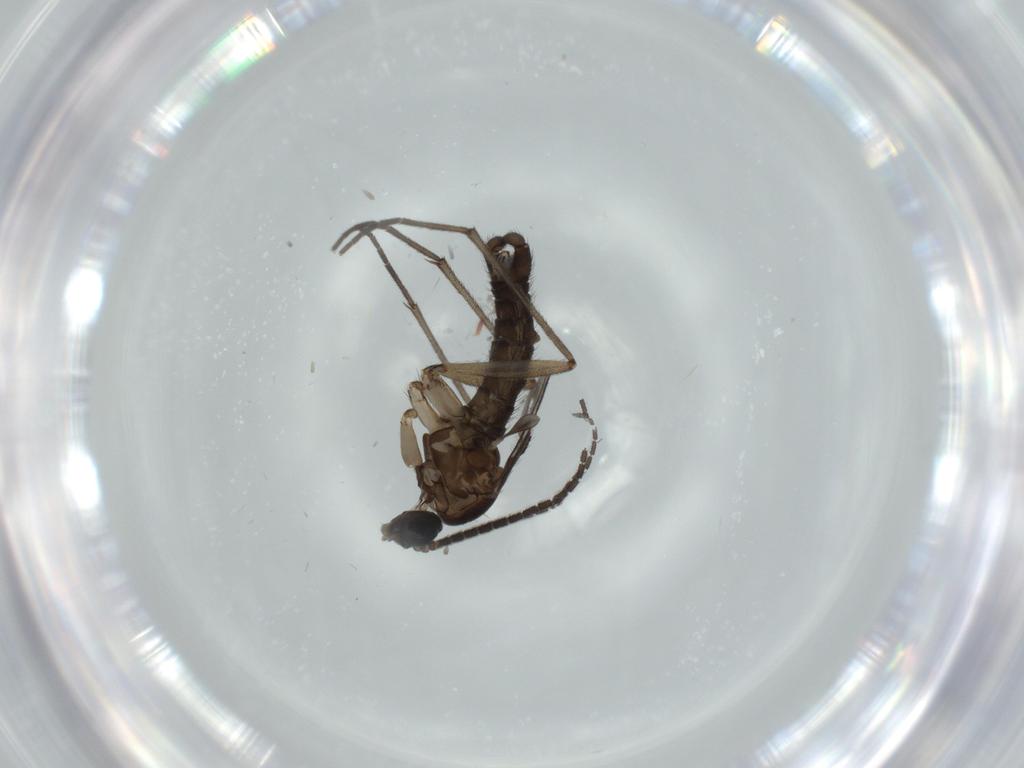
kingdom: Animalia
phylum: Arthropoda
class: Insecta
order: Diptera
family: Sciaridae
